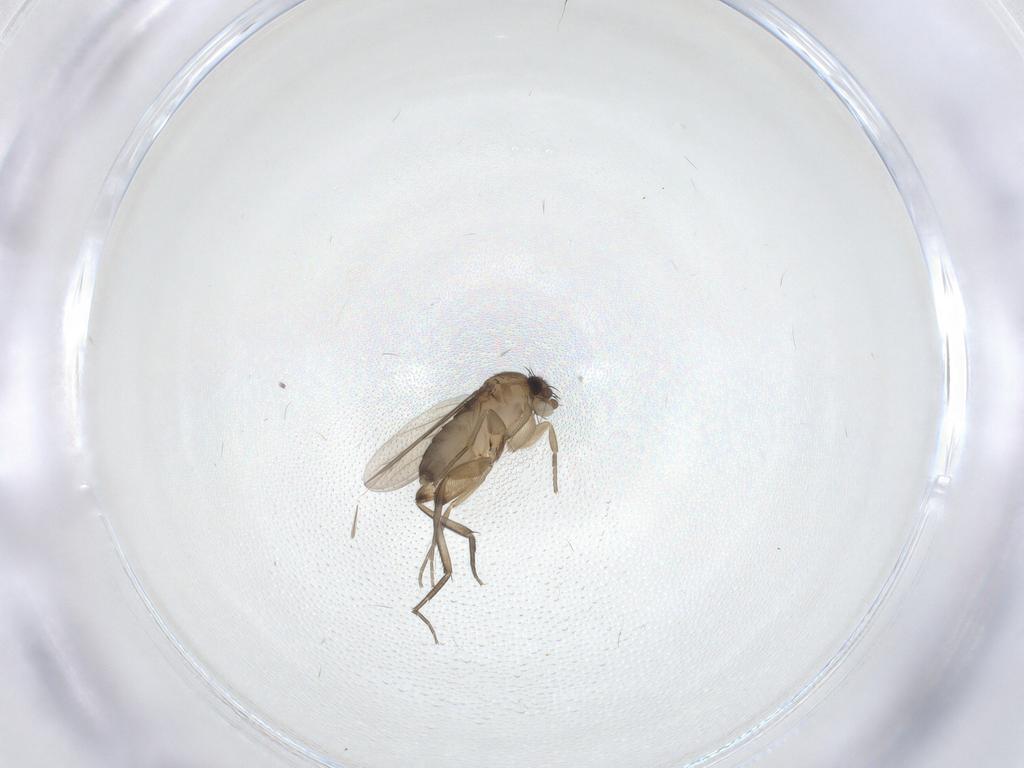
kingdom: Animalia
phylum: Arthropoda
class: Insecta
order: Diptera
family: Phoridae
